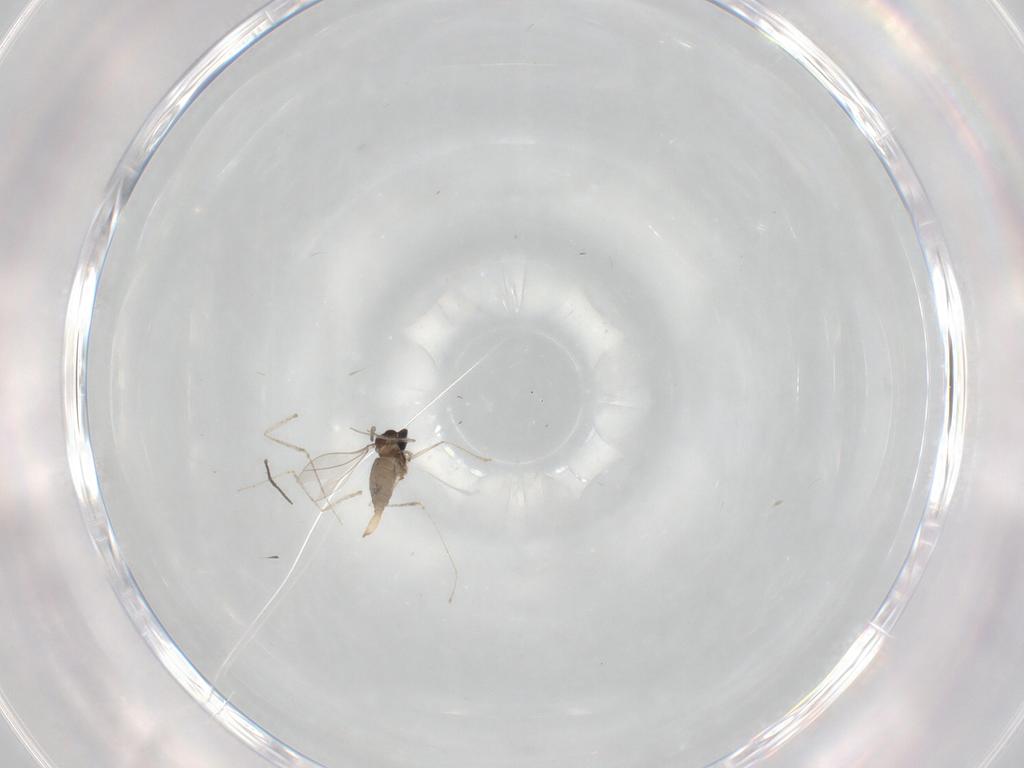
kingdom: Animalia
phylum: Arthropoda
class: Insecta
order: Diptera
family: Cecidomyiidae
